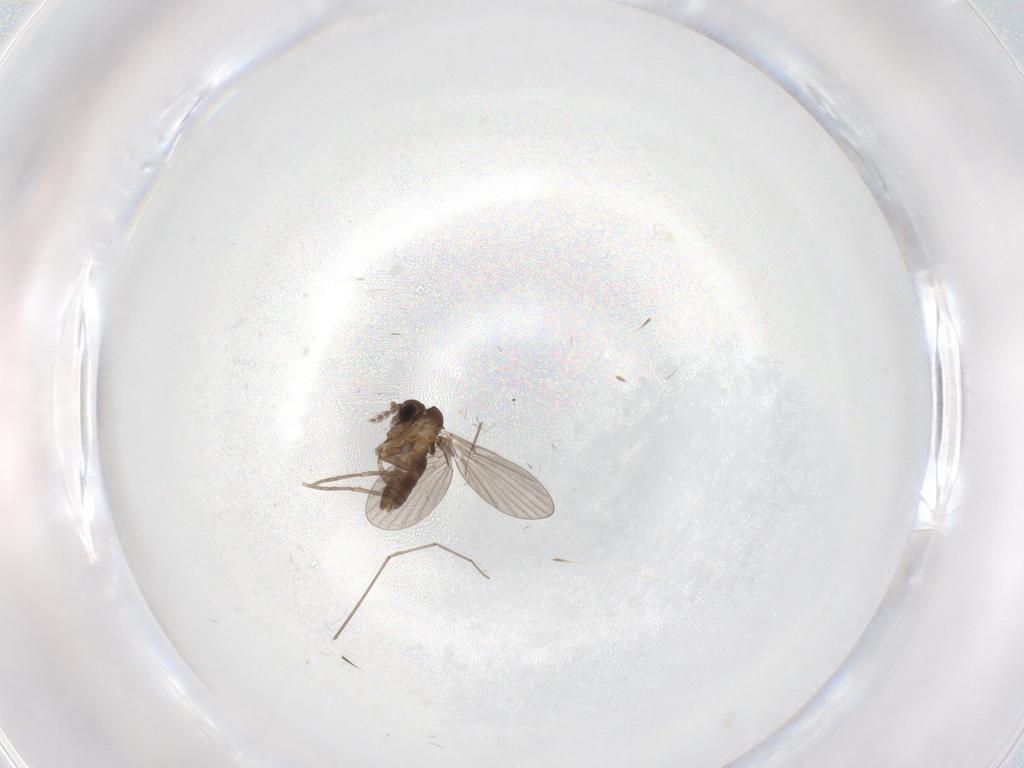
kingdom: Animalia
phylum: Arthropoda
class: Insecta
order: Diptera
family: Chironomidae
